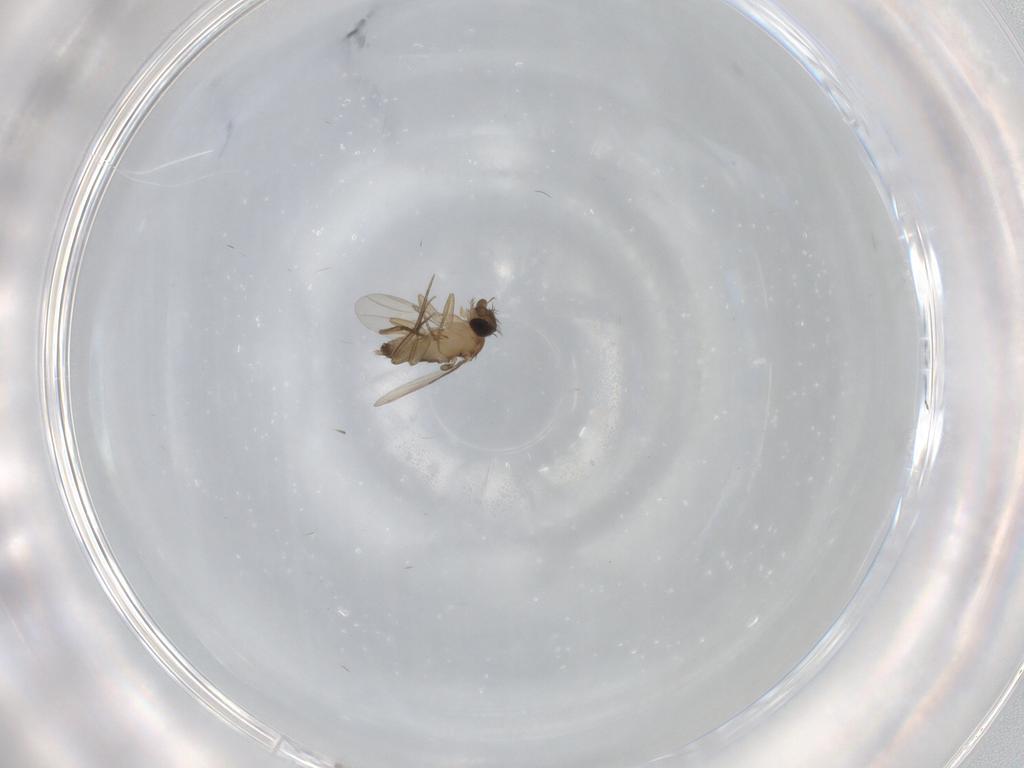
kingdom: Animalia
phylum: Arthropoda
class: Insecta
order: Diptera
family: Phoridae
